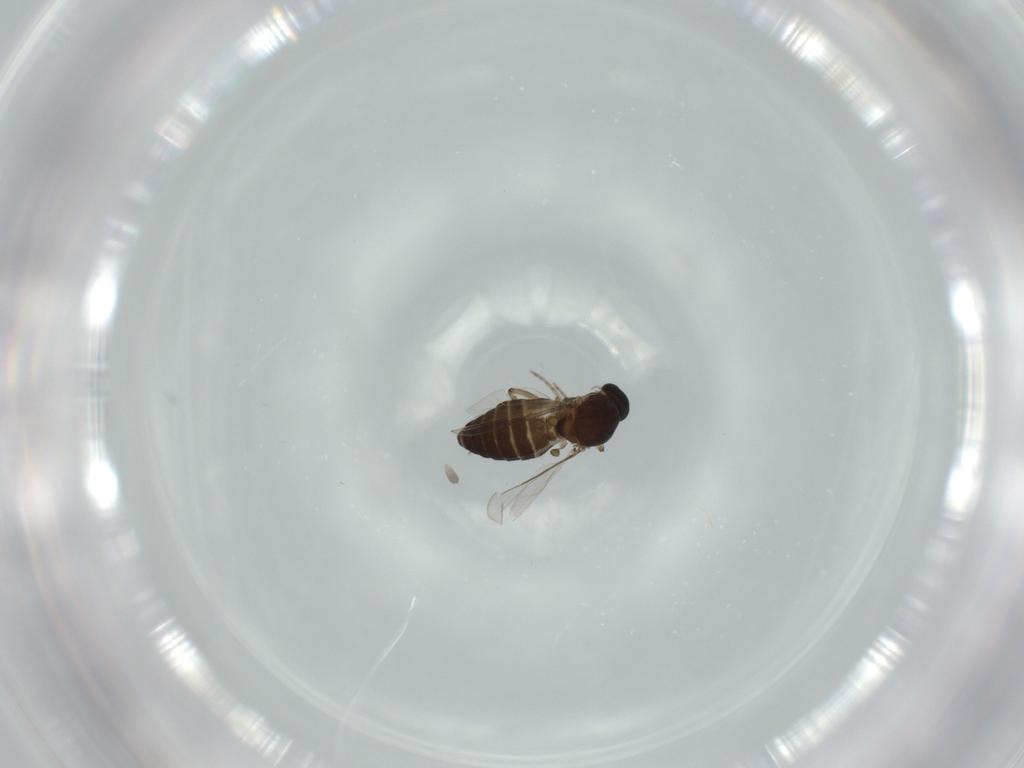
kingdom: Animalia
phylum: Arthropoda
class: Insecta
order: Diptera
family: Ceratopogonidae
